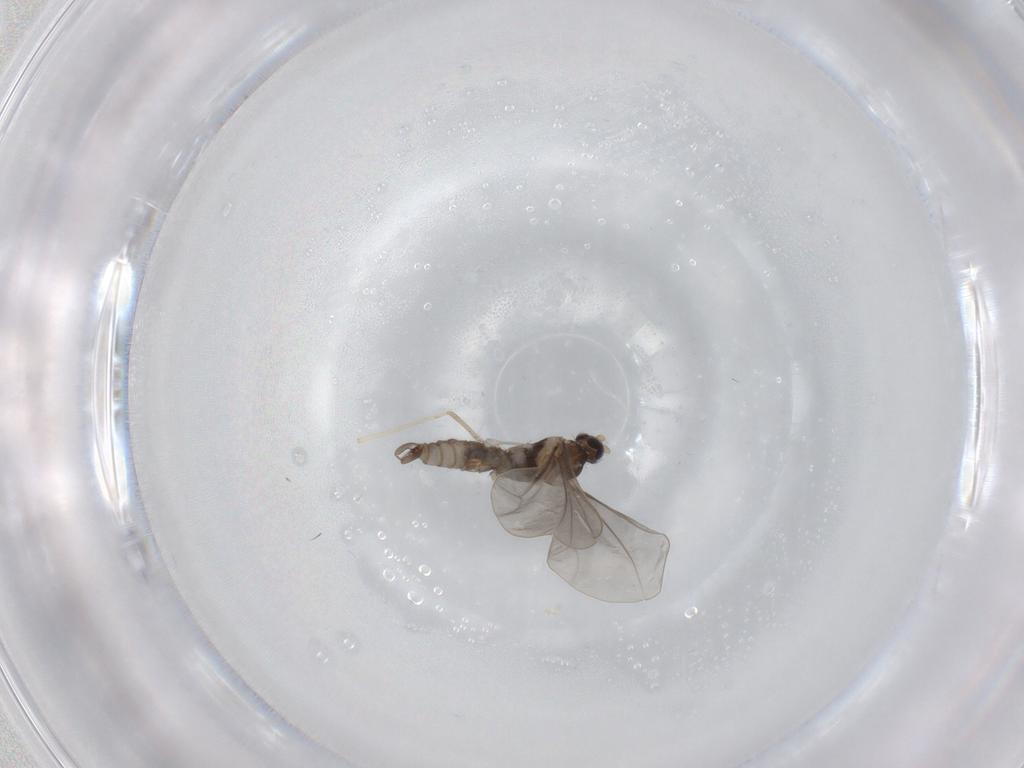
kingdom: Animalia
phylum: Arthropoda
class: Insecta
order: Diptera
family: Cecidomyiidae
